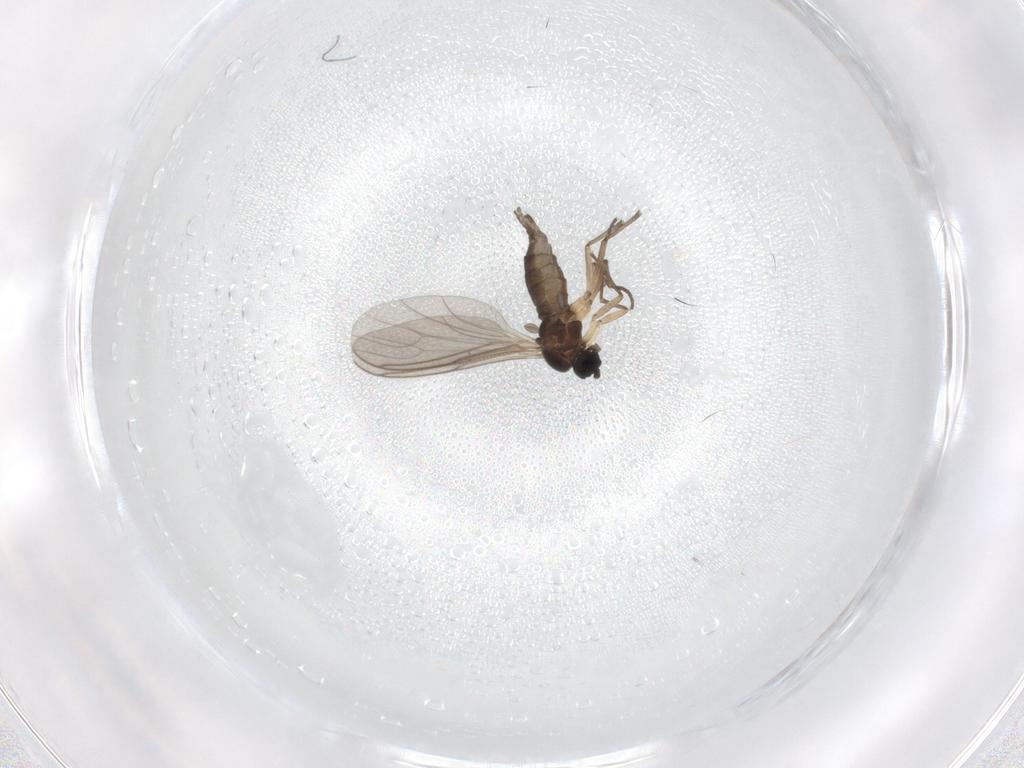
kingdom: Animalia
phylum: Arthropoda
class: Insecta
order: Diptera
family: Sciaridae
